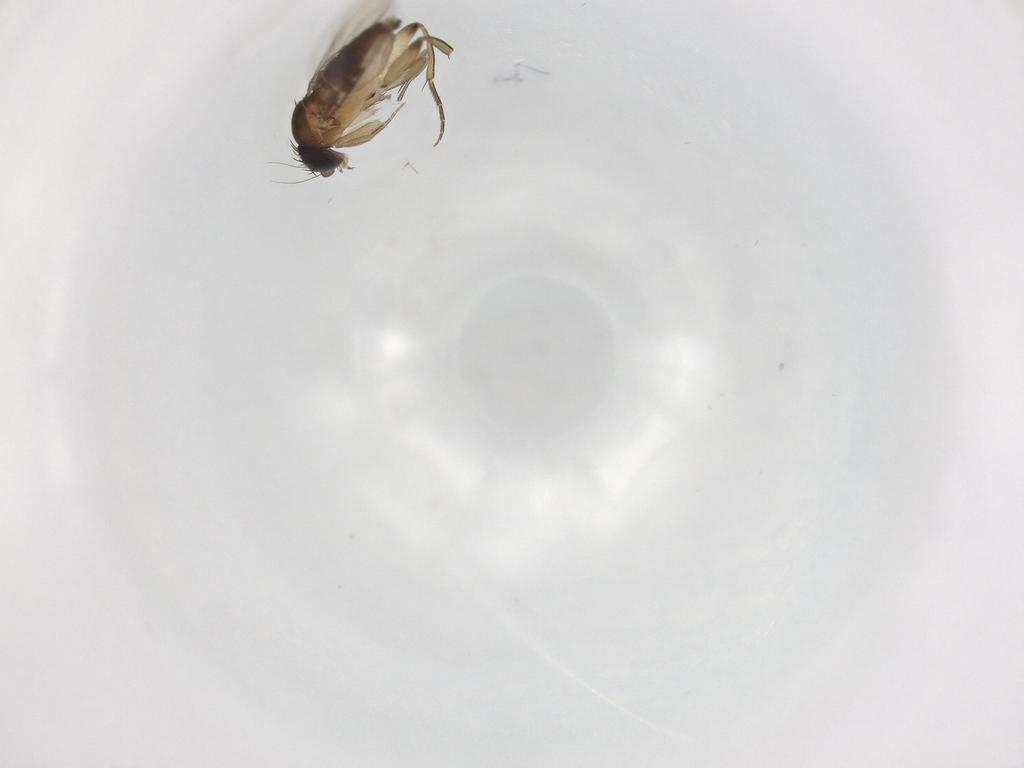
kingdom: Animalia
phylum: Arthropoda
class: Insecta
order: Diptera
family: Phoridae
